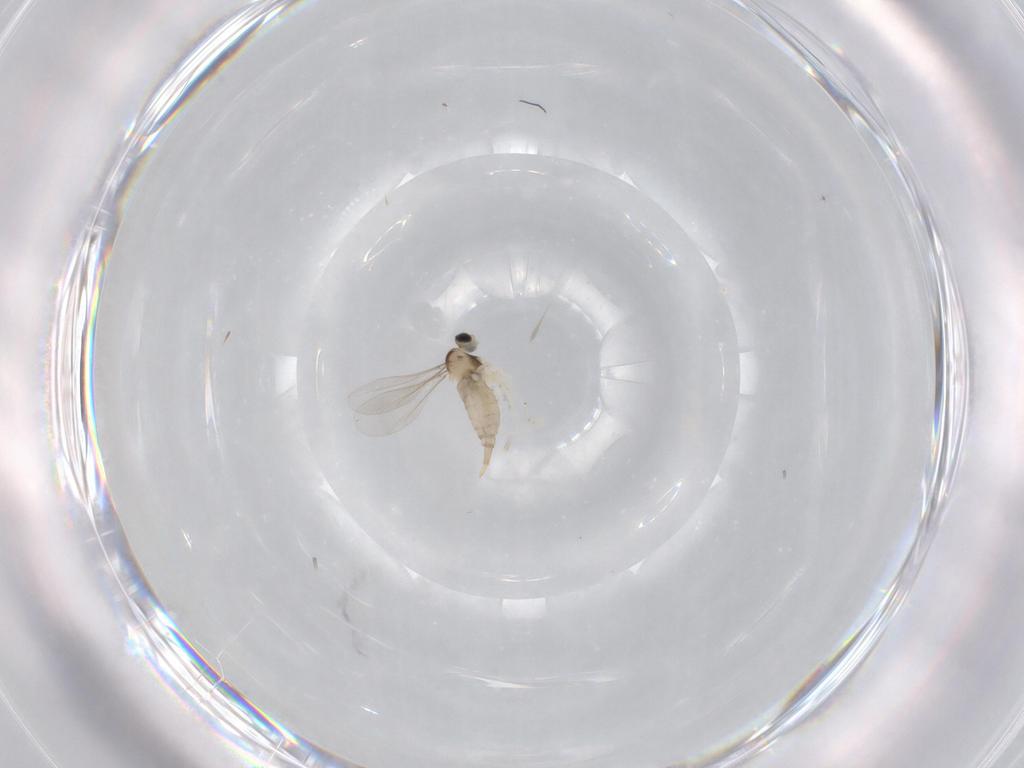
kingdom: Animalia
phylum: Arthropoda
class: Insecta
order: Diptera
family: Cecidomyiidae
